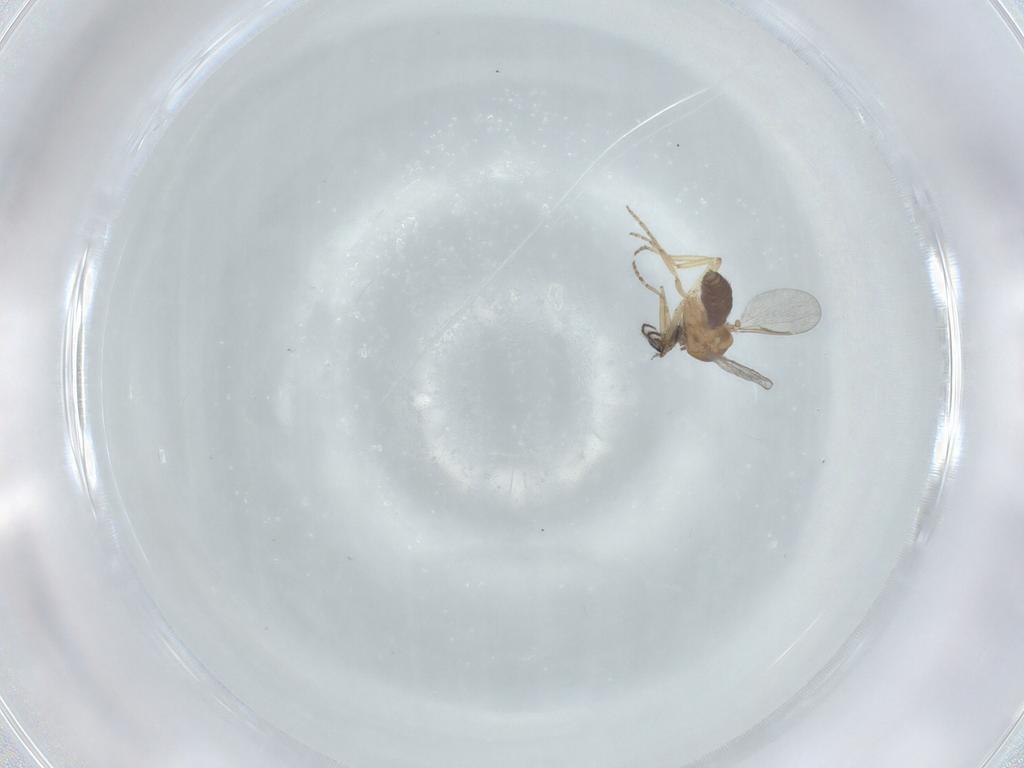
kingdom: Animalia
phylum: Arthropoda
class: Insecta
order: Diptera
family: Ceratopogonidae
